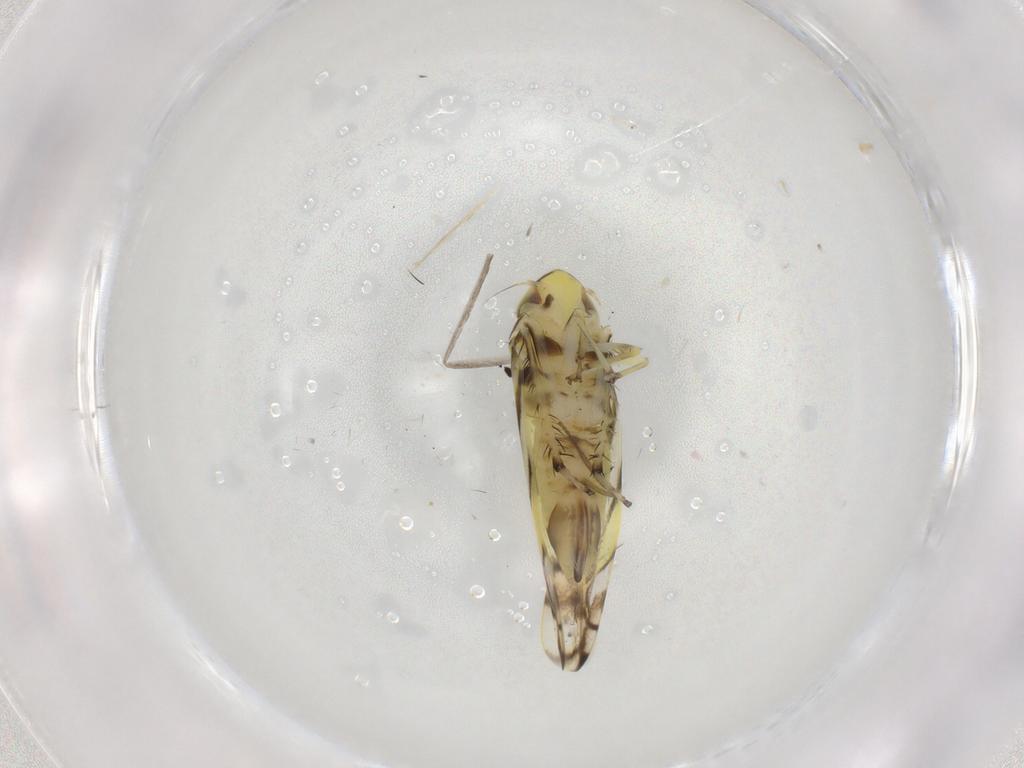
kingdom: Animalia
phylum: Arthropoda
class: Insecta
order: Hemiptera
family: Cicadellidae
